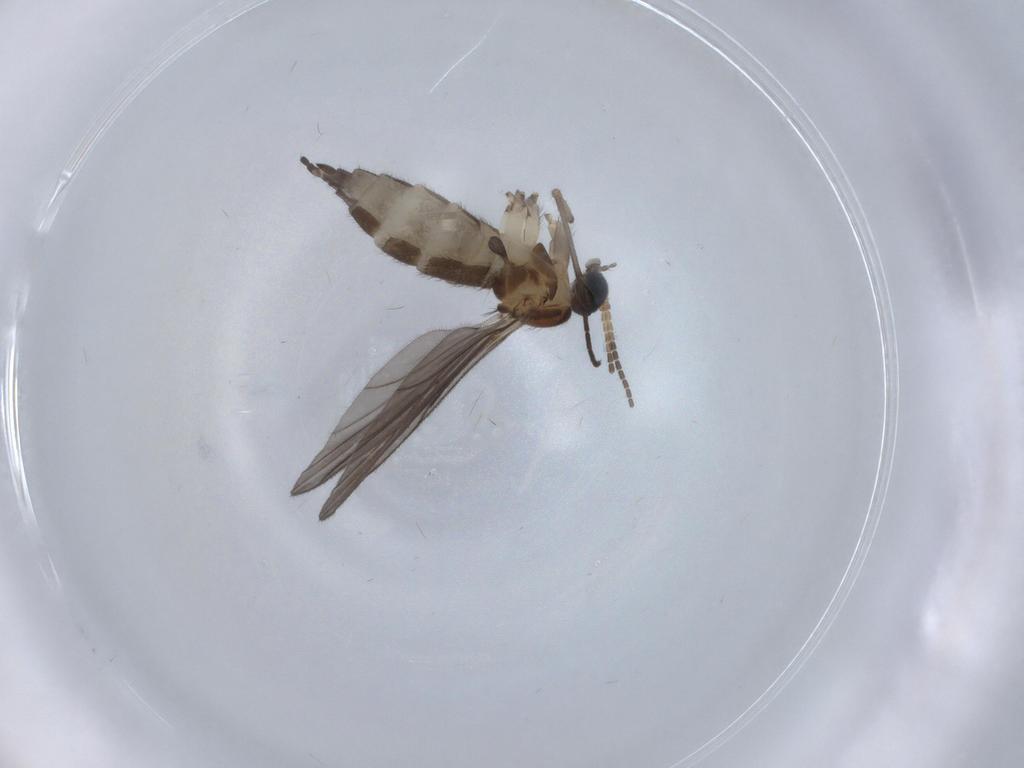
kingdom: Animalia
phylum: Arthropoda
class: Insecta
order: Diptera
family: Sciaridae
